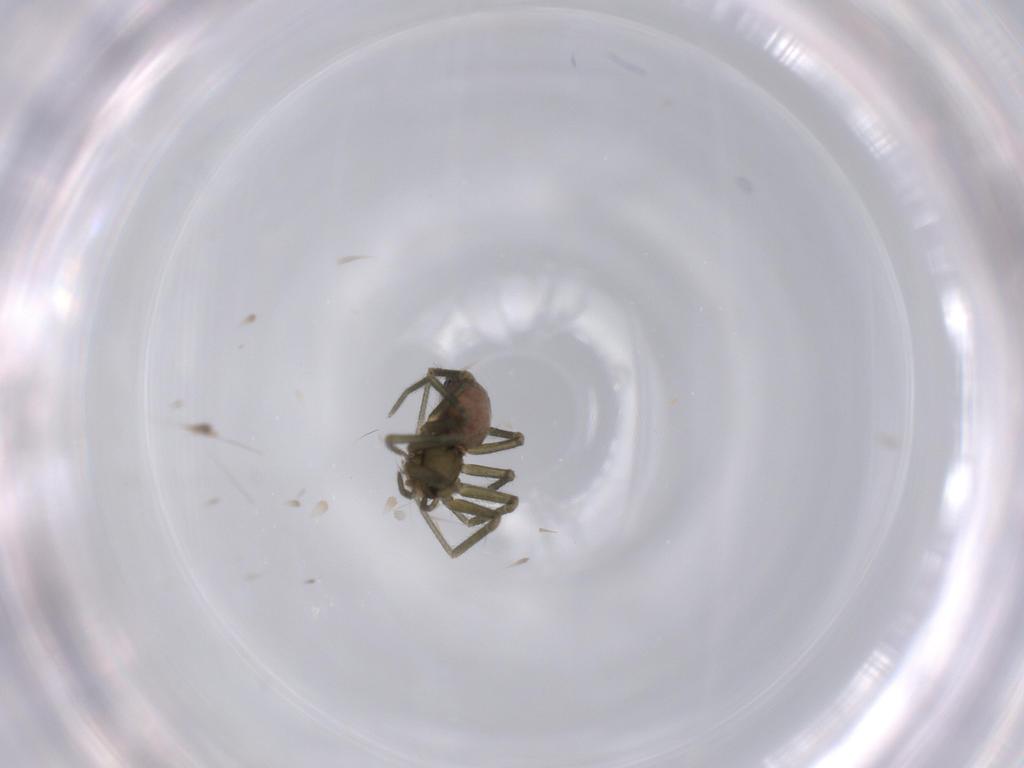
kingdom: Animalia
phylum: Arthropoda
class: Arachnida
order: Araneae
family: Linyphiidae
